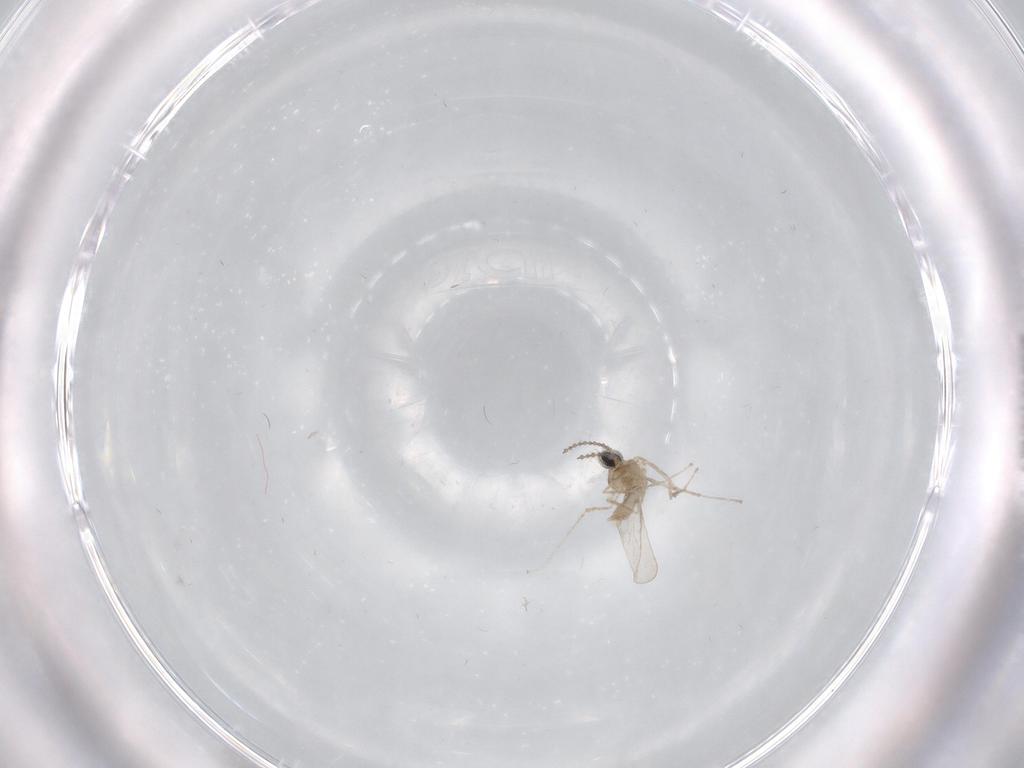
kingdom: Animalia
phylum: Arthropoda
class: Insecta
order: Diptera
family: Cecidomyiidae
